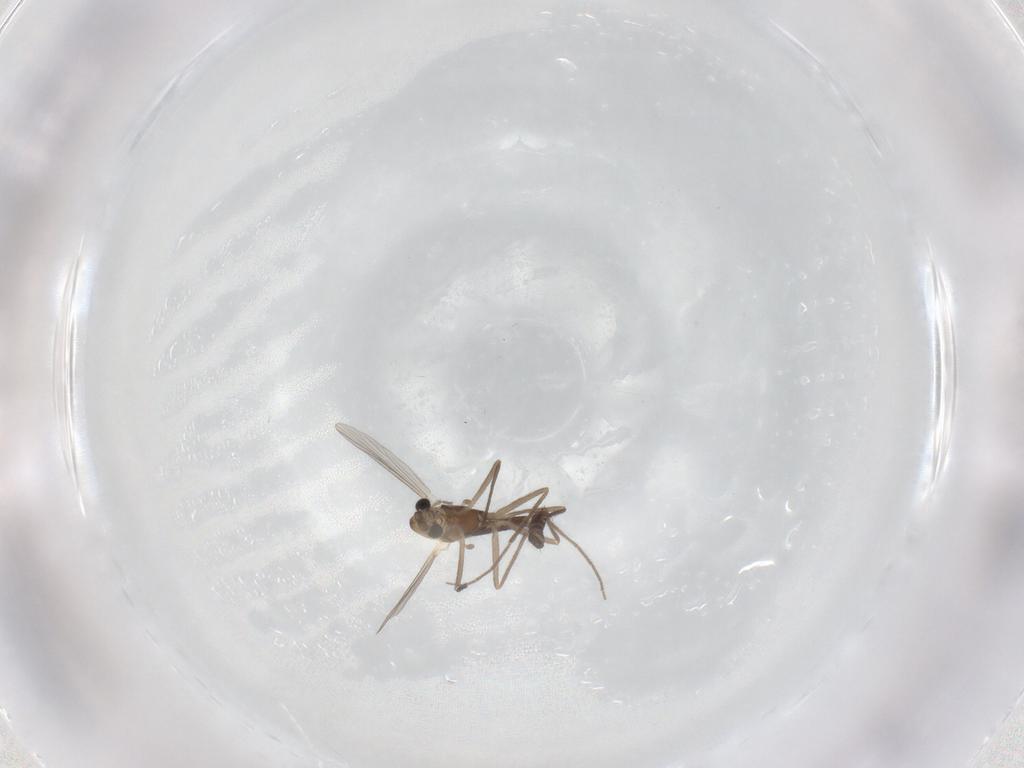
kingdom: Animalia
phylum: Arthropoda
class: Insecta
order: Diptera
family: Chironomidae
